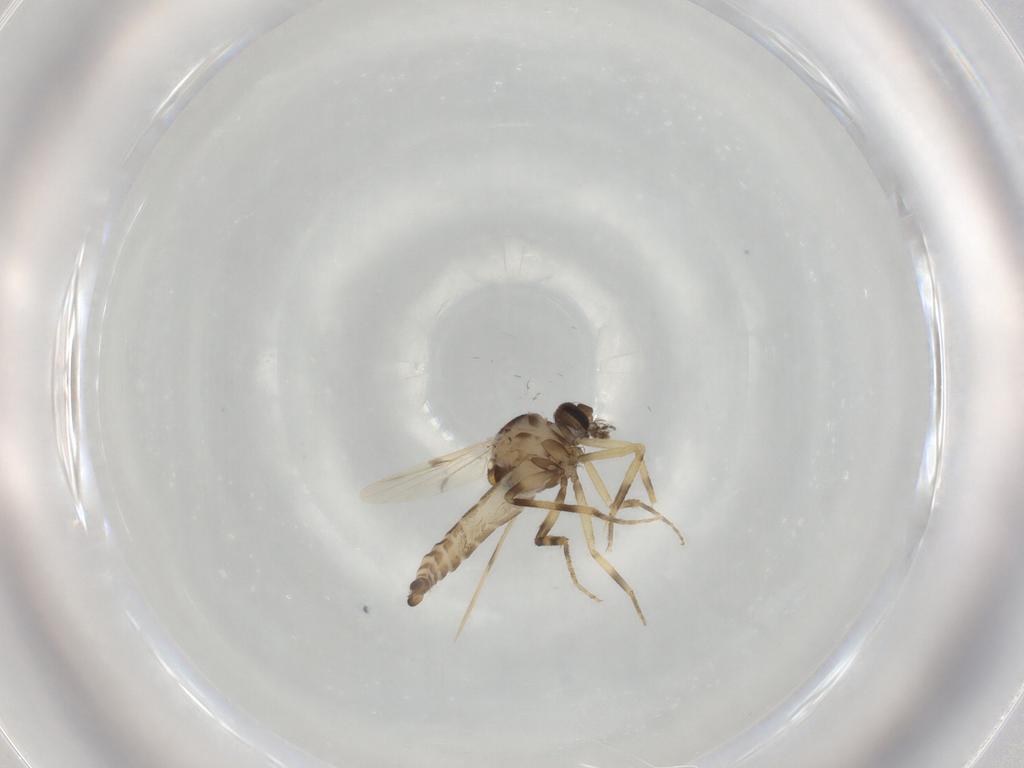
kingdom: Animalia
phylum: Arthropoda
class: Insecta
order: Diptera
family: Ceratopogonidae
